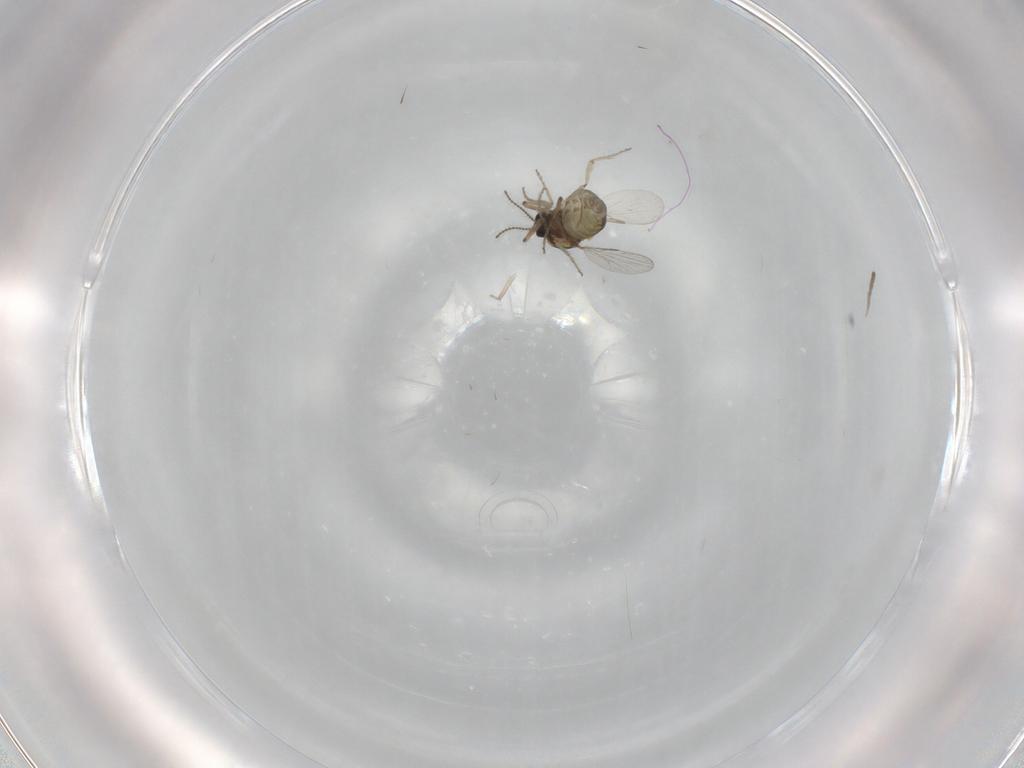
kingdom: Animalia
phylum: Arthropoda
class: Insecta
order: Diptera
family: Ceratopogonidae
